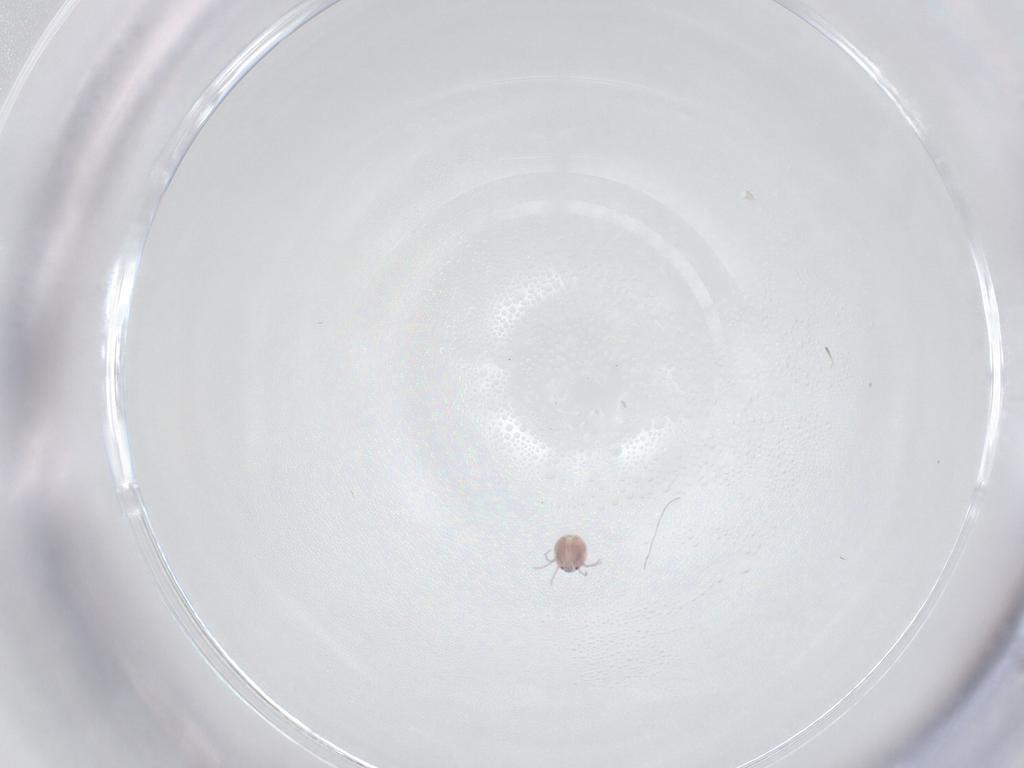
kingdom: Animalia
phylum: Arthropoda
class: Arachnida
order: Trombidiformes
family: Pionidae
